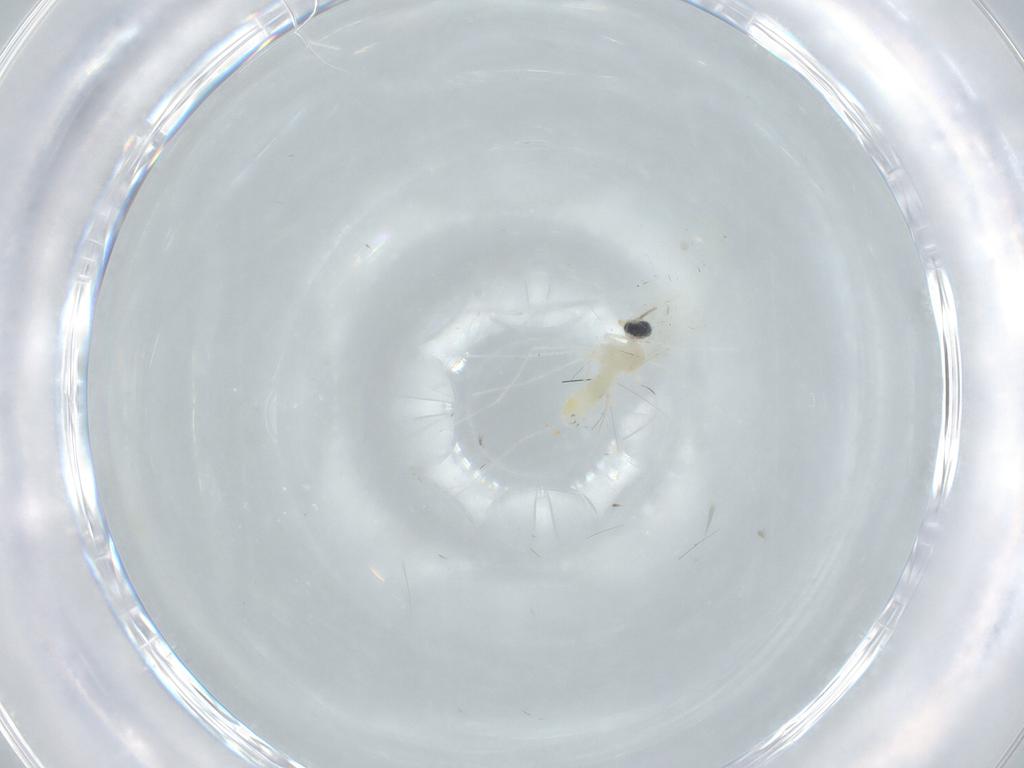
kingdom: Animalia
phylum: Arthropoda
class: Insecta
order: Diptera
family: Cecidomyiidae
